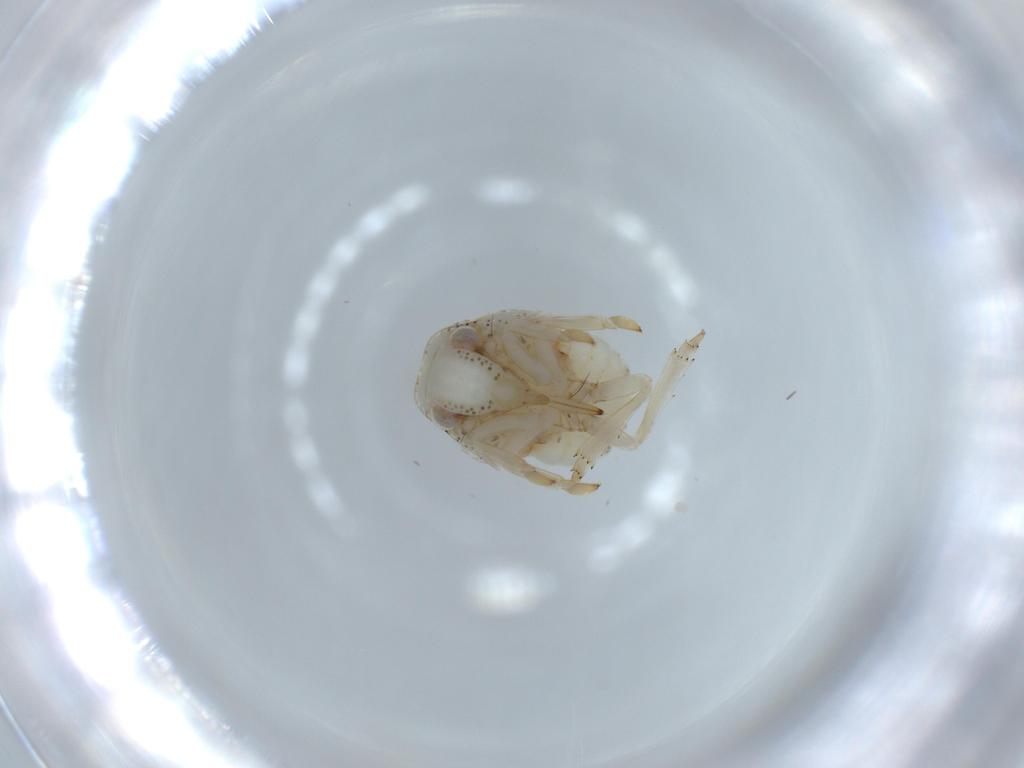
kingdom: Animalia
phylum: Arthropoda
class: Insecta
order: Hemiptera
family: Acanaloniidae
